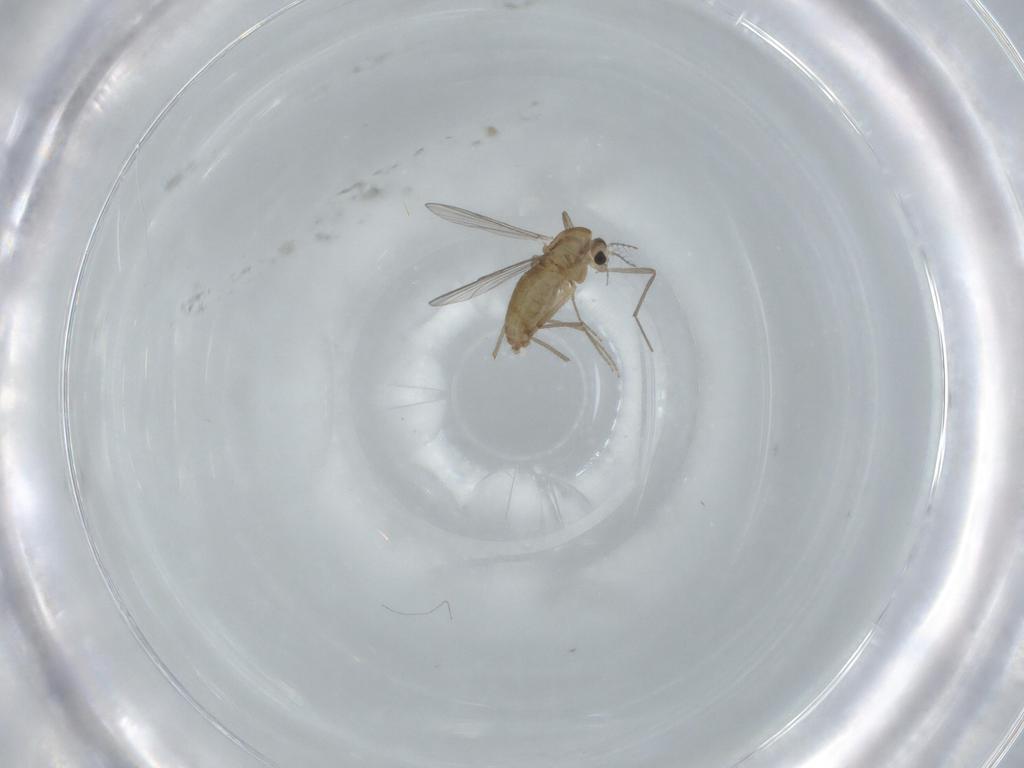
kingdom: Animalia
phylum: Arthropoda
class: Insecta
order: Diptera
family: Chironomidae
